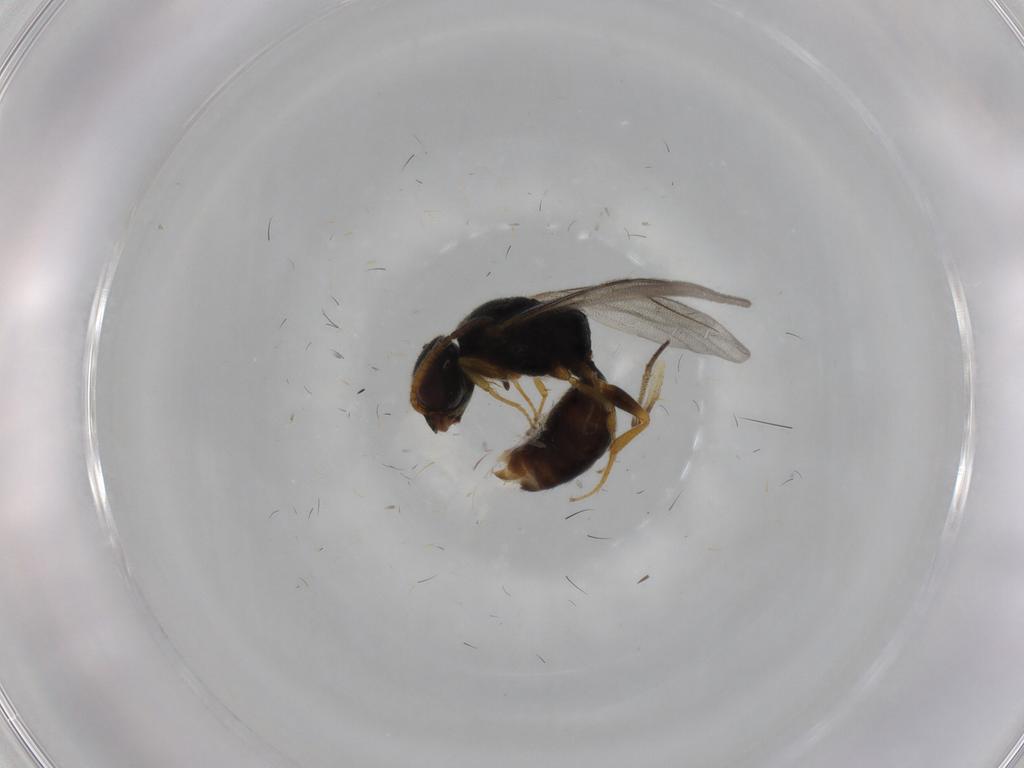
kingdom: Animalia
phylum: Arthropoda
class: Insecta
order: Hymenoptera
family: Bethylidae
